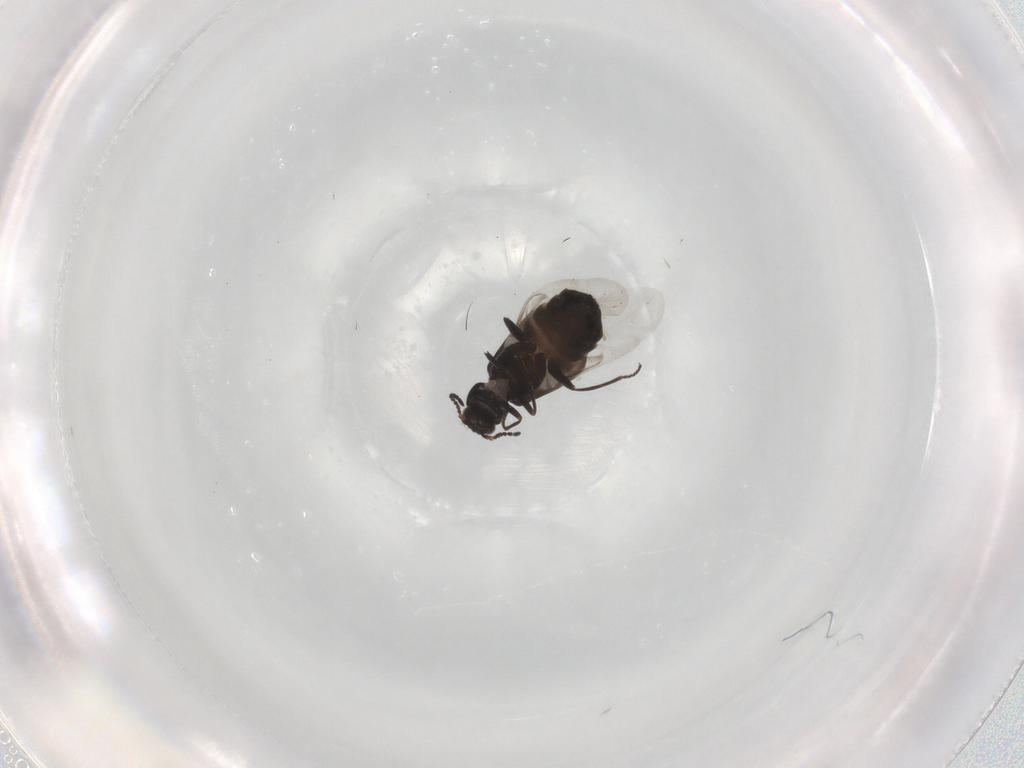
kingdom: Animalia
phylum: Arthropoda
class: Insecta
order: Coleoptera
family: Melyridae
